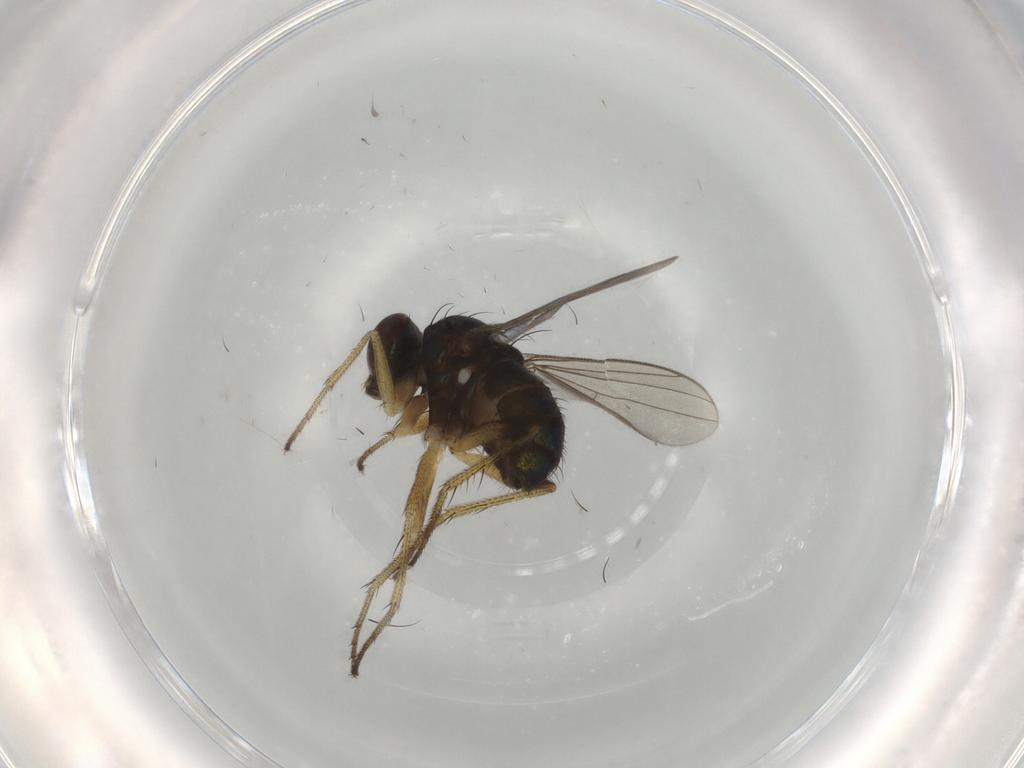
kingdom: Animalia
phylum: Arthropoda
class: Insecta
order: Diptera
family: Dolichopodidae
